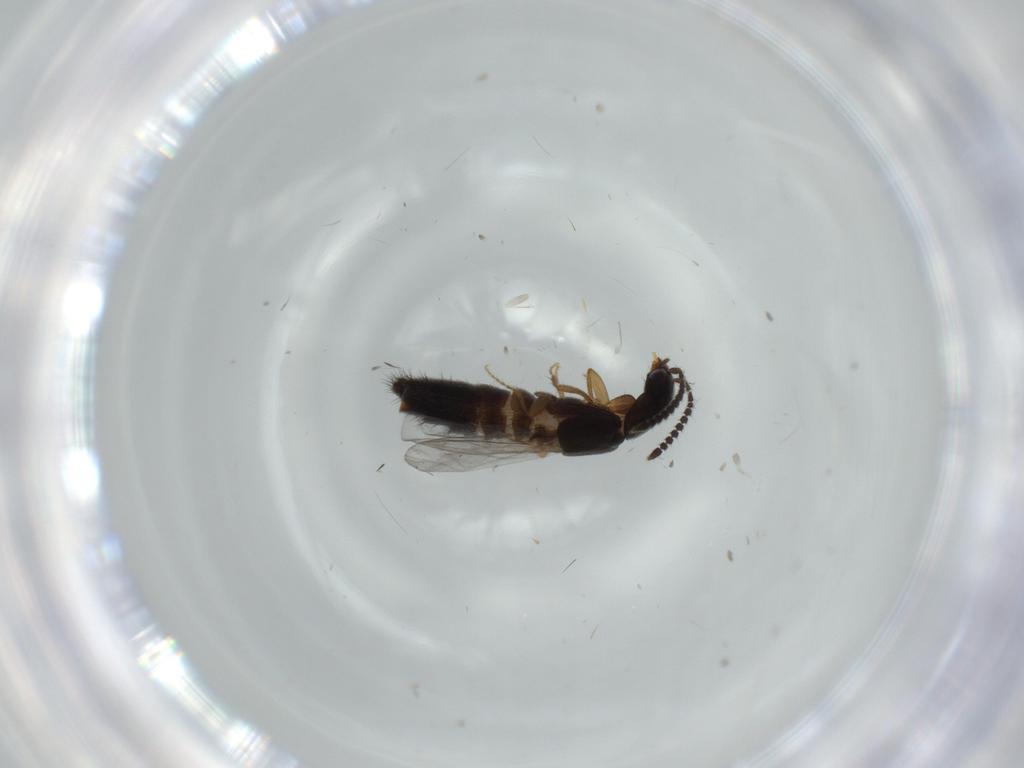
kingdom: Animalia
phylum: Arthropoda
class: Insecta
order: Coleoptera
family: Staphylinidae
